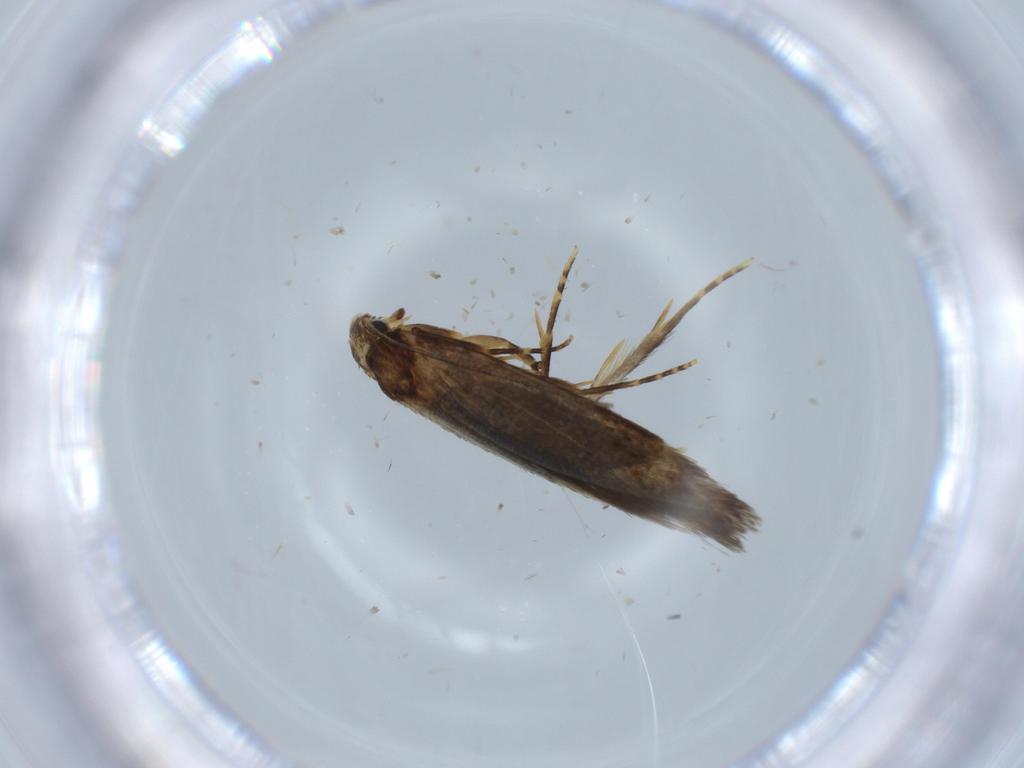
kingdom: Animalia
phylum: Arthropoda
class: Insecta
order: Lepidoptera
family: Tineidae
